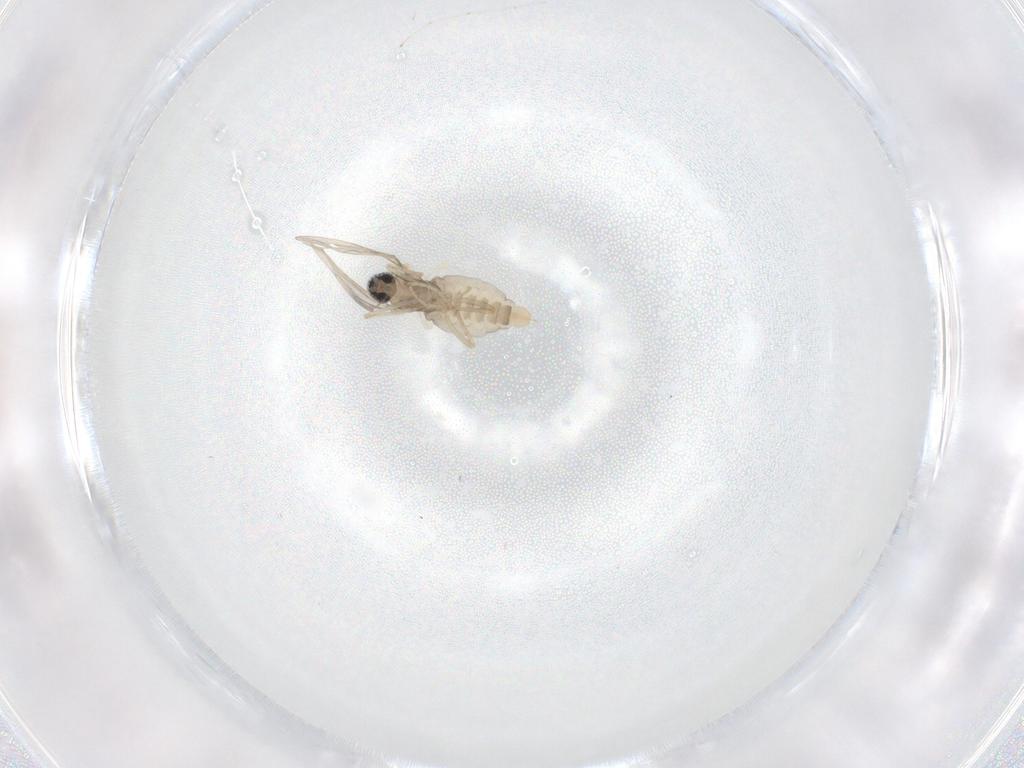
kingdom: Animalia
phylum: Arthropoda
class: Insecta
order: Diptera
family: Cecidomyiidae
